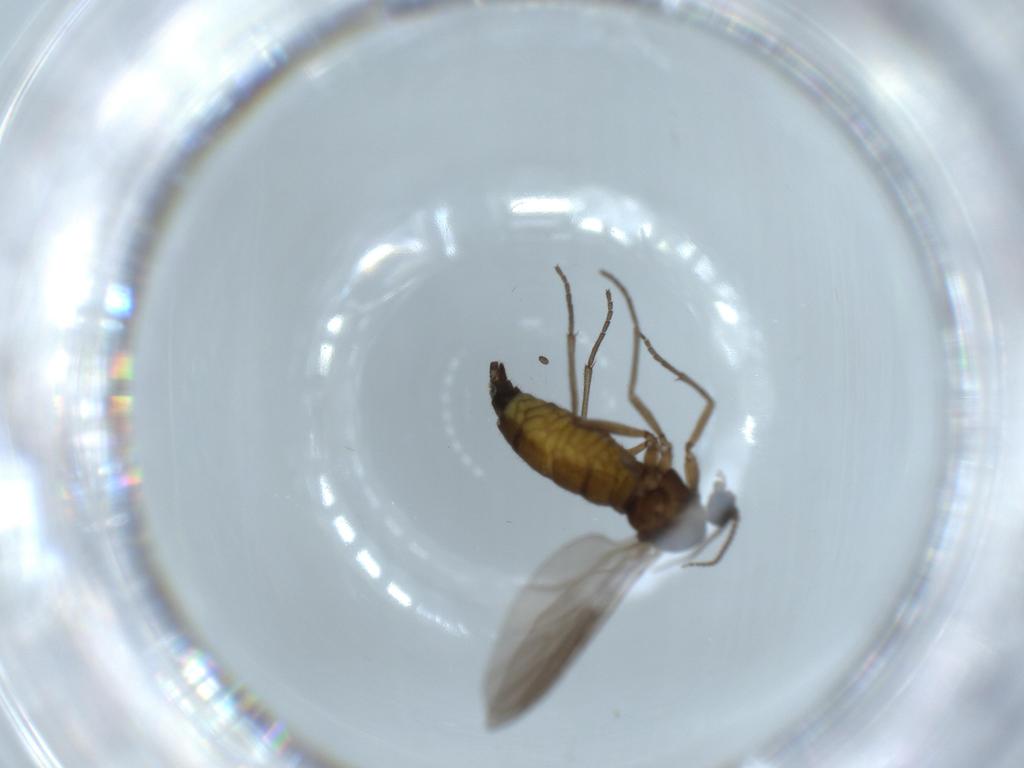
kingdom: Animalia
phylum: Arthropoda
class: Insecta
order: Diptera
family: Sciaridae
